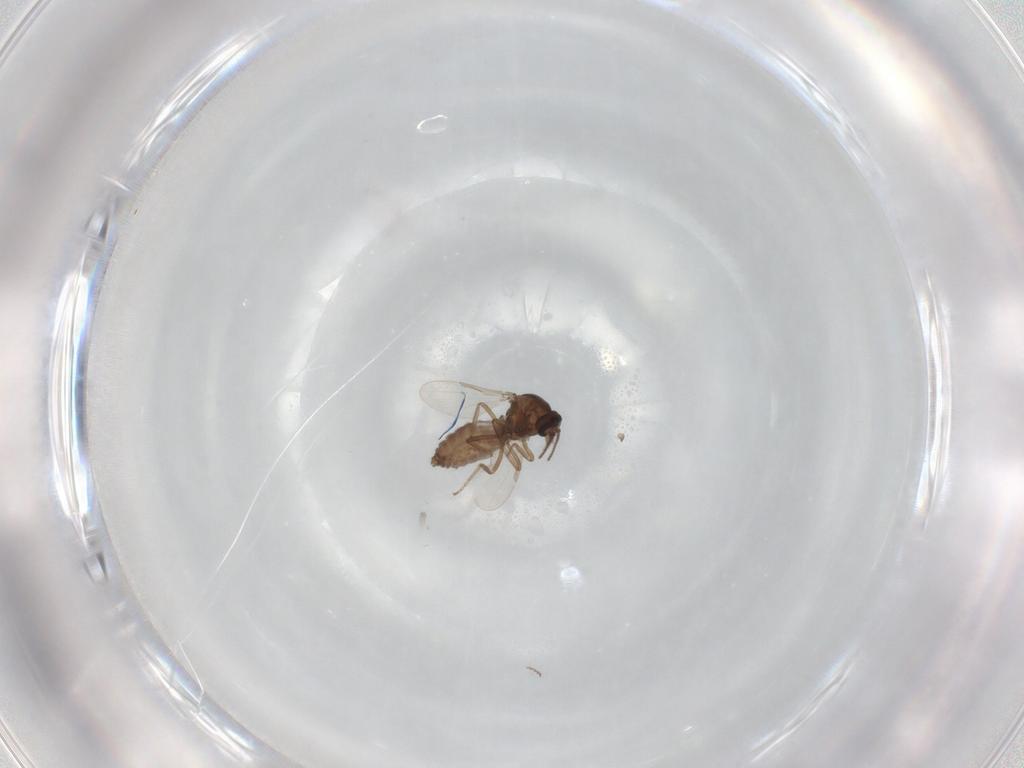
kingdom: Animalia
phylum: Arthropoda
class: Insecta
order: Diptera
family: Ceratopogonidae
